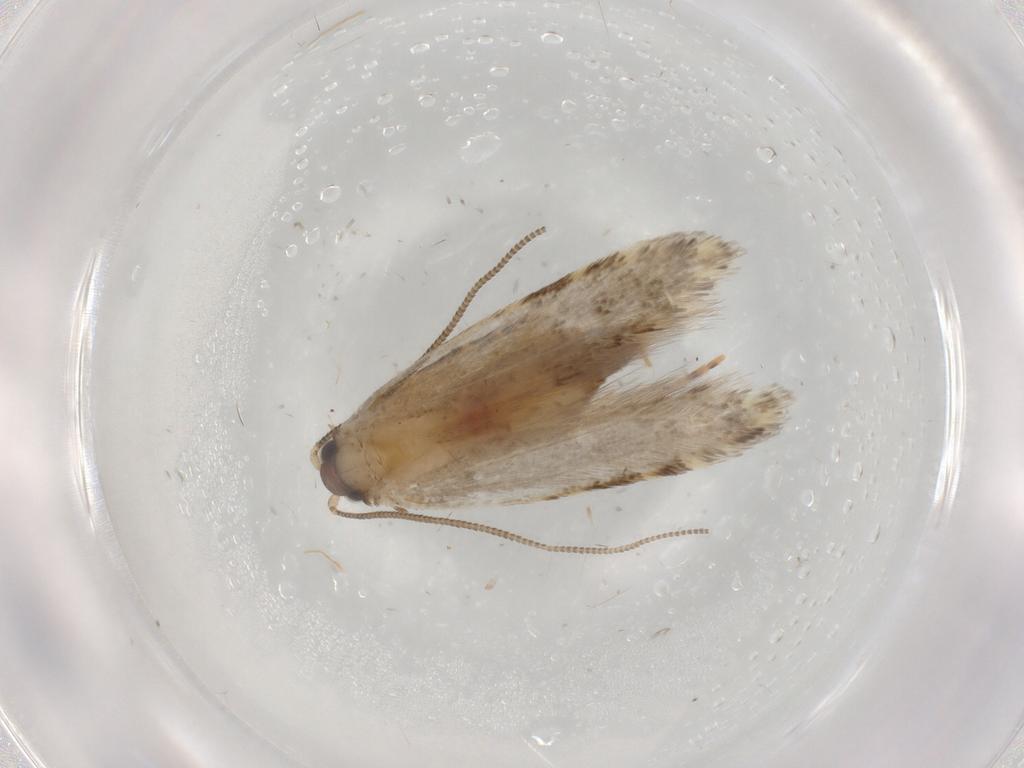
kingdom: Animalia
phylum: Arthropoda
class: Insecta
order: Lepidoptera
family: Tineidae
